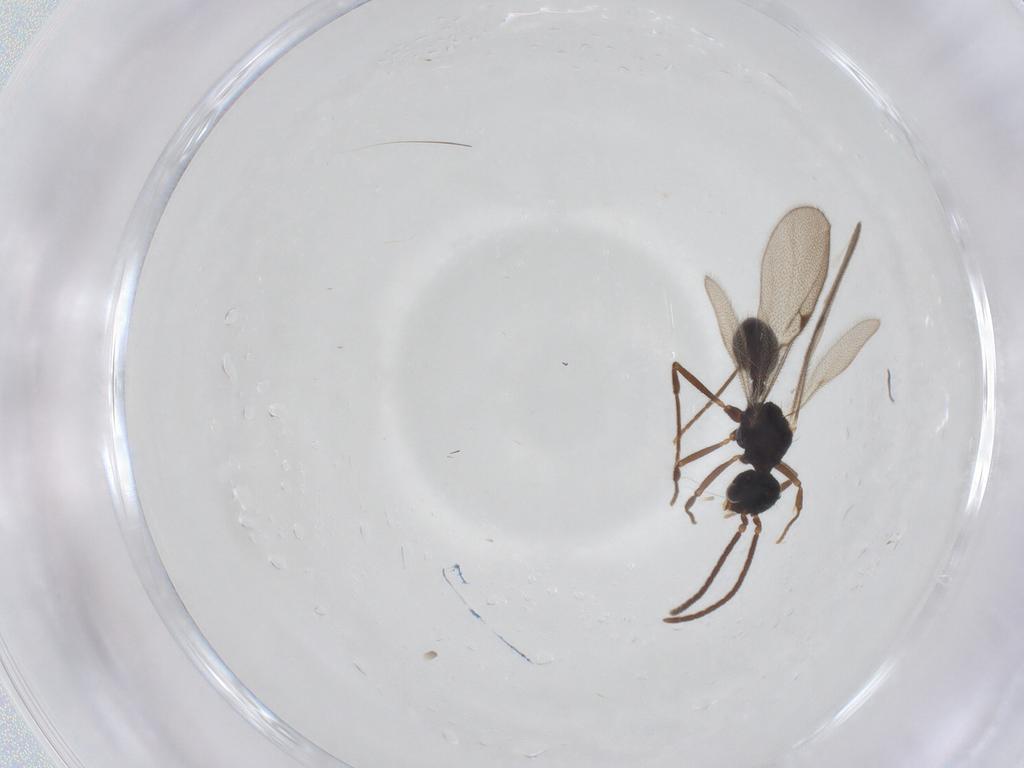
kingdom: Animalia
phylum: Arthropoda
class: Insecta
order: Hymenoptera
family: Formicidae
